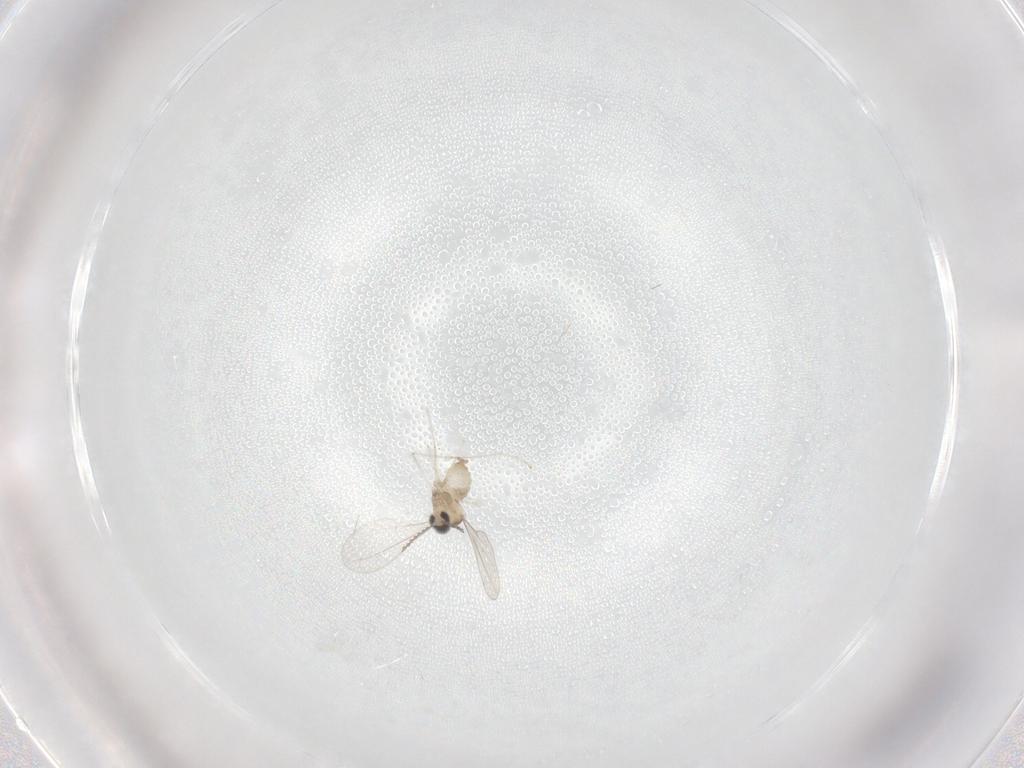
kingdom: Animalia
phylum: Arthropoda
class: Insecta
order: Diptera
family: Cecidomyiidae
